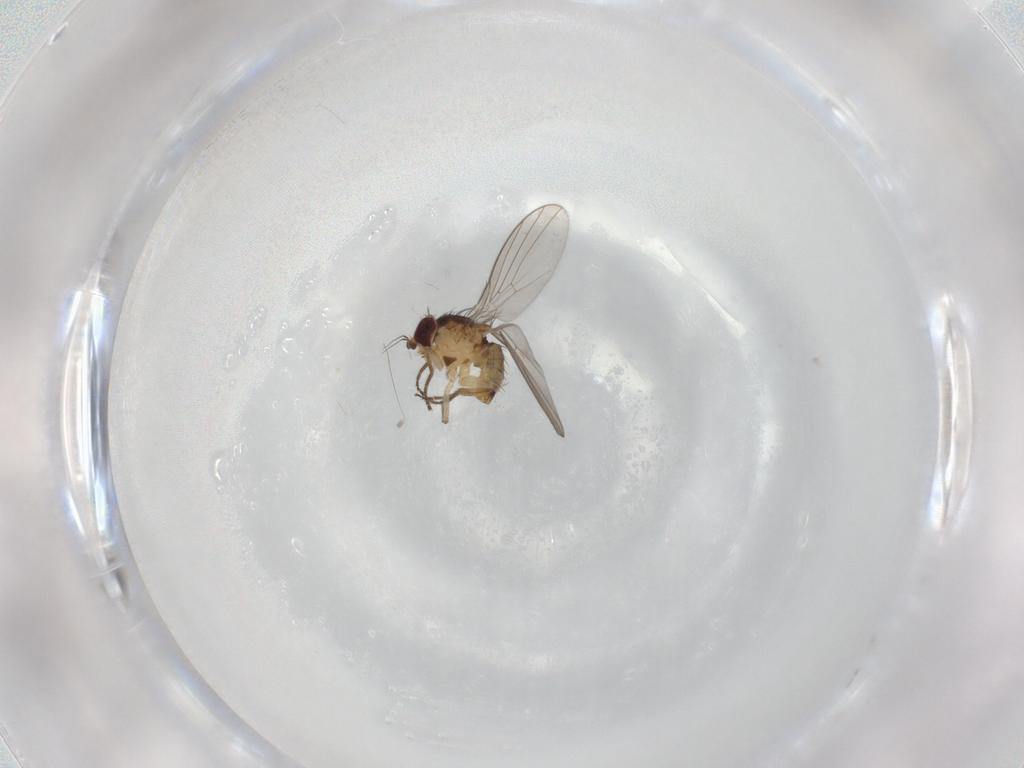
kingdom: Animalia
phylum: Arthropoda
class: Insecta
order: Diptera
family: Agromyzidae
